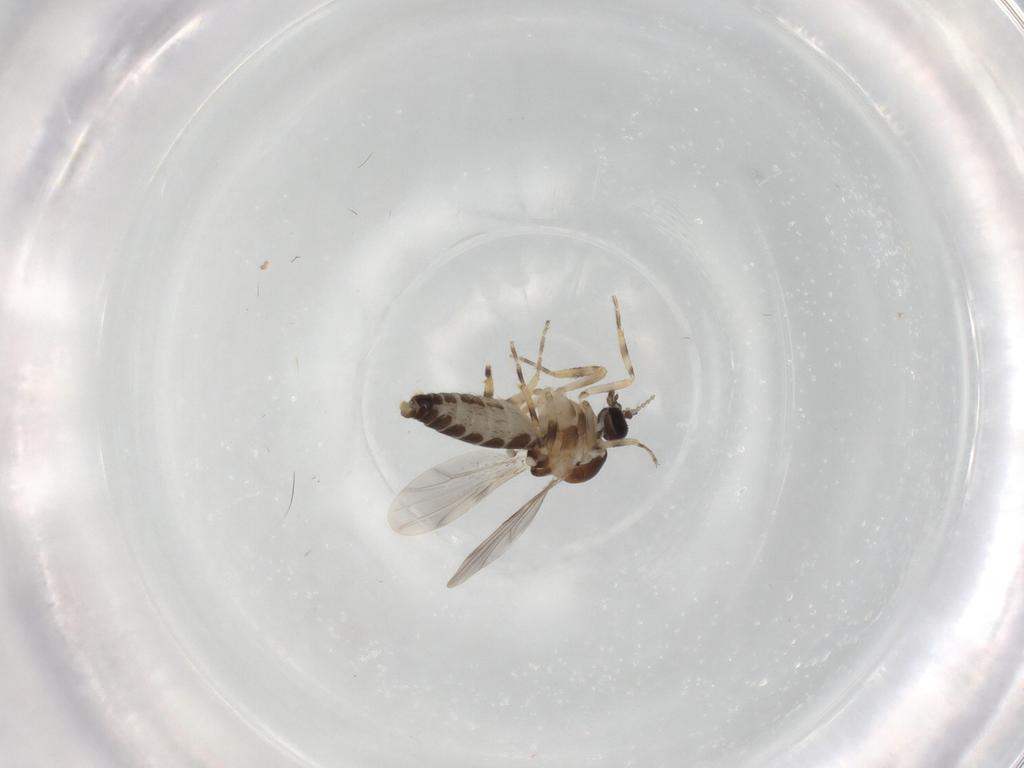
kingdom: Animalia
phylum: Arthropoda
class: Insecta
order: Diptera
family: Ceratopogonidae
